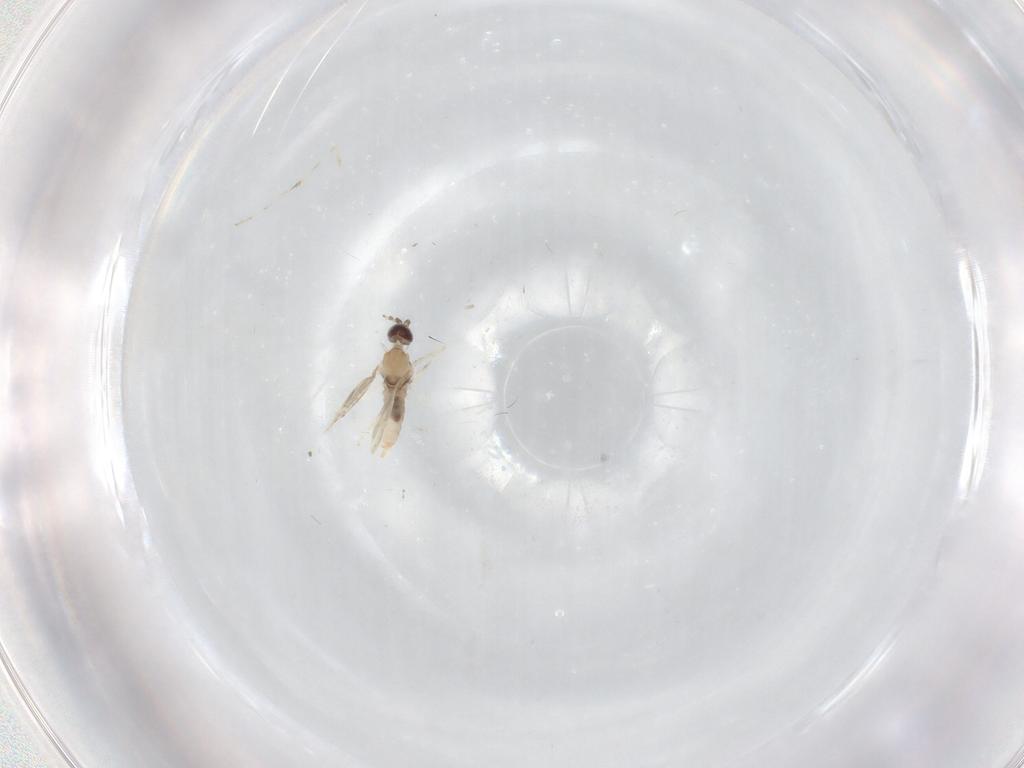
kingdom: Animalia
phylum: Arthropoda
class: Insecta
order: Diptera
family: Cecidomyiidae
